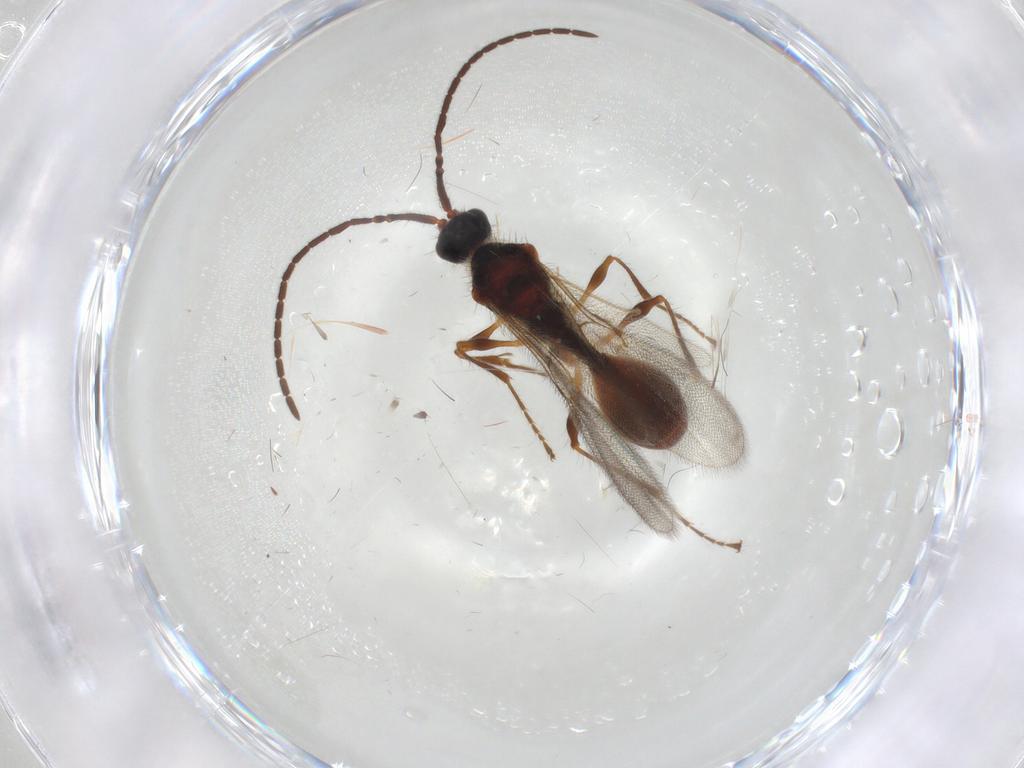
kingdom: Animalia
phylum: Arthropoda
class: Insecta
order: Hymenoptera
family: Diapriidae
